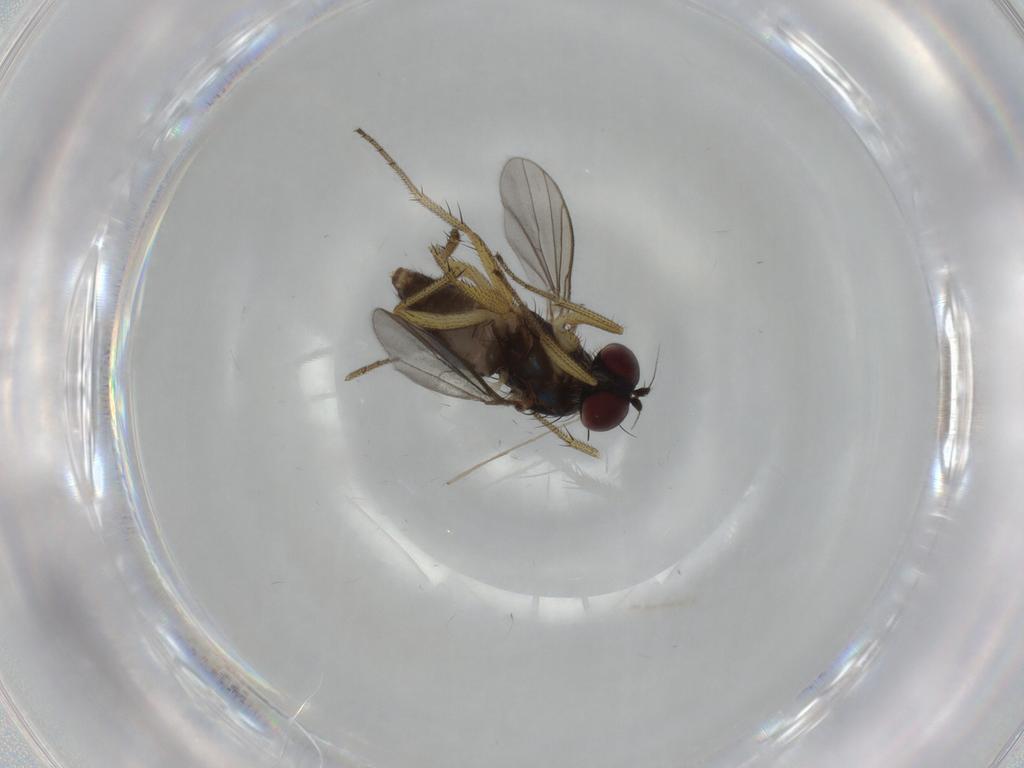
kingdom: Animalia
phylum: Arthropoda
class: Insecta
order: Diptera
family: Dolichopodidae
